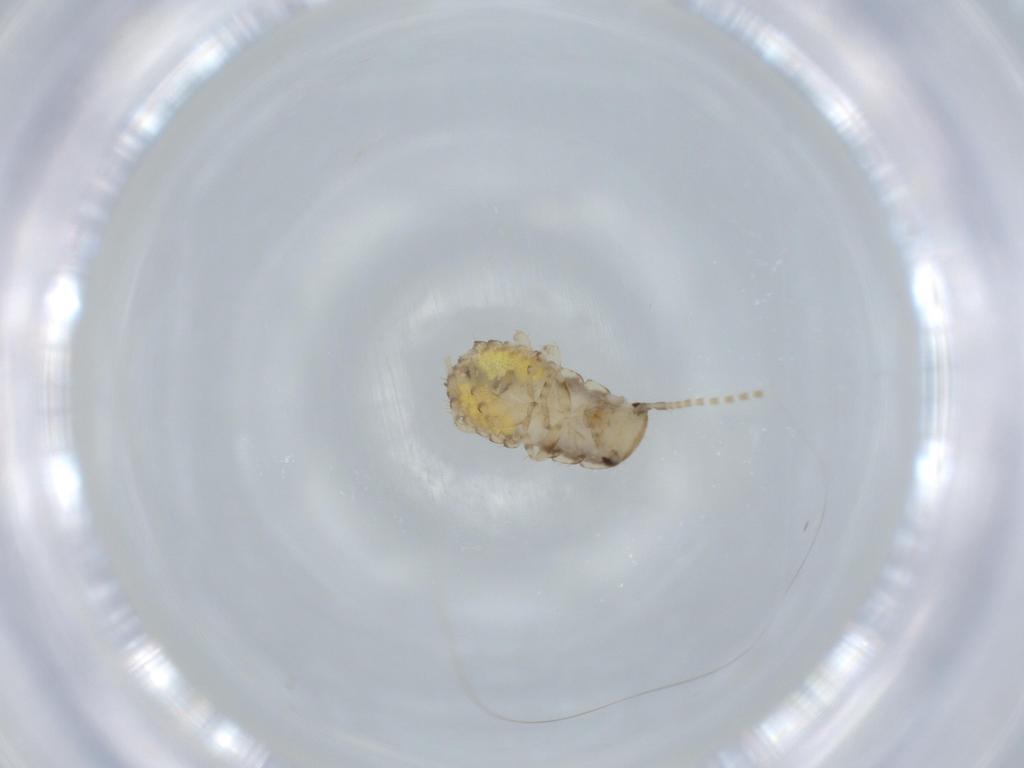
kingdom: Animalia
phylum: Arthropoda
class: Insecta
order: Blattodea
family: Ectobiidae
